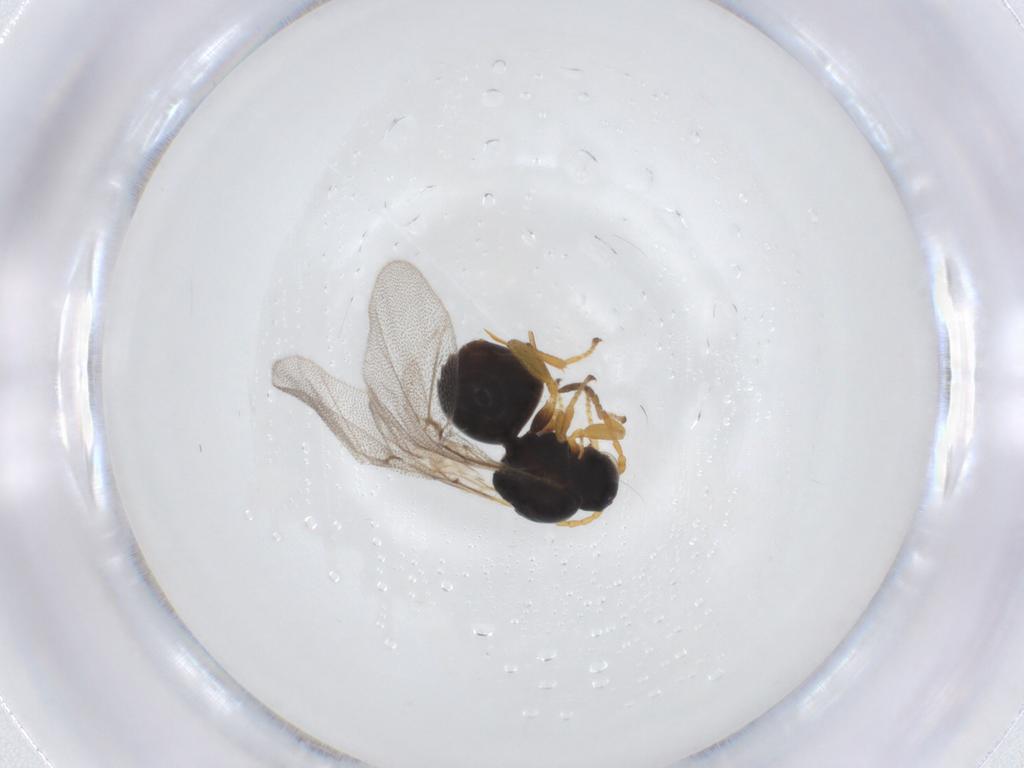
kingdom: Animalia
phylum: Arthropoda
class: Insecta
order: Hymenoptera
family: Cynipidae
